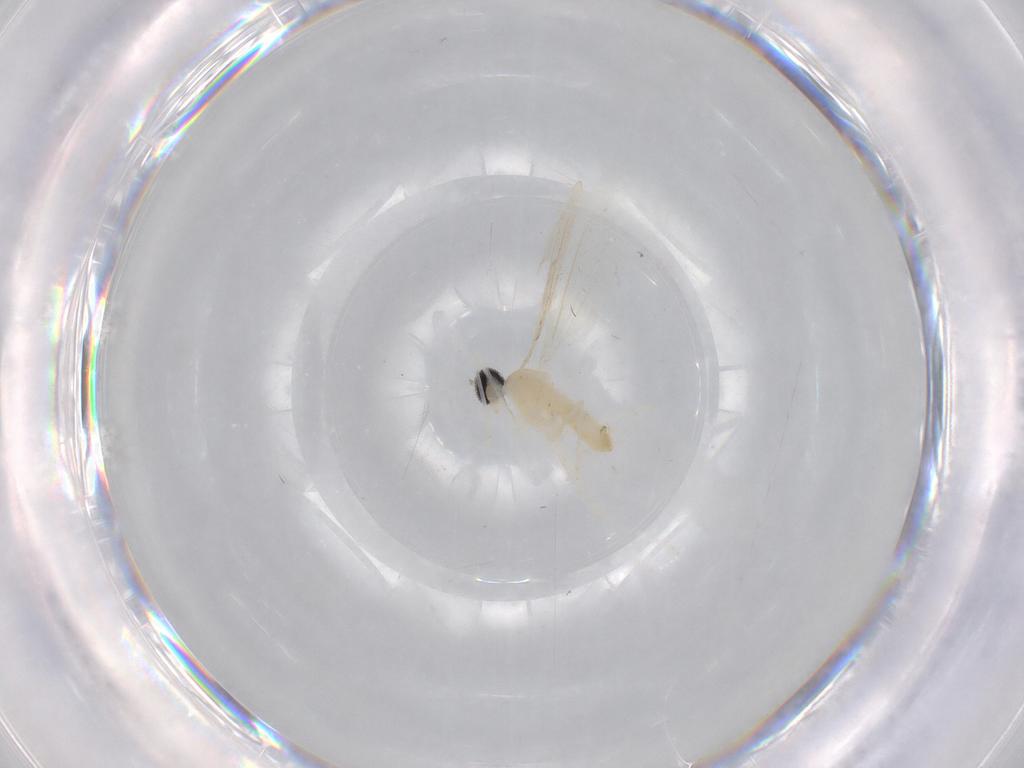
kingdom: Animalia
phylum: Arthropoda
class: Insecta
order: Diptera
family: Cecidomyiidae
